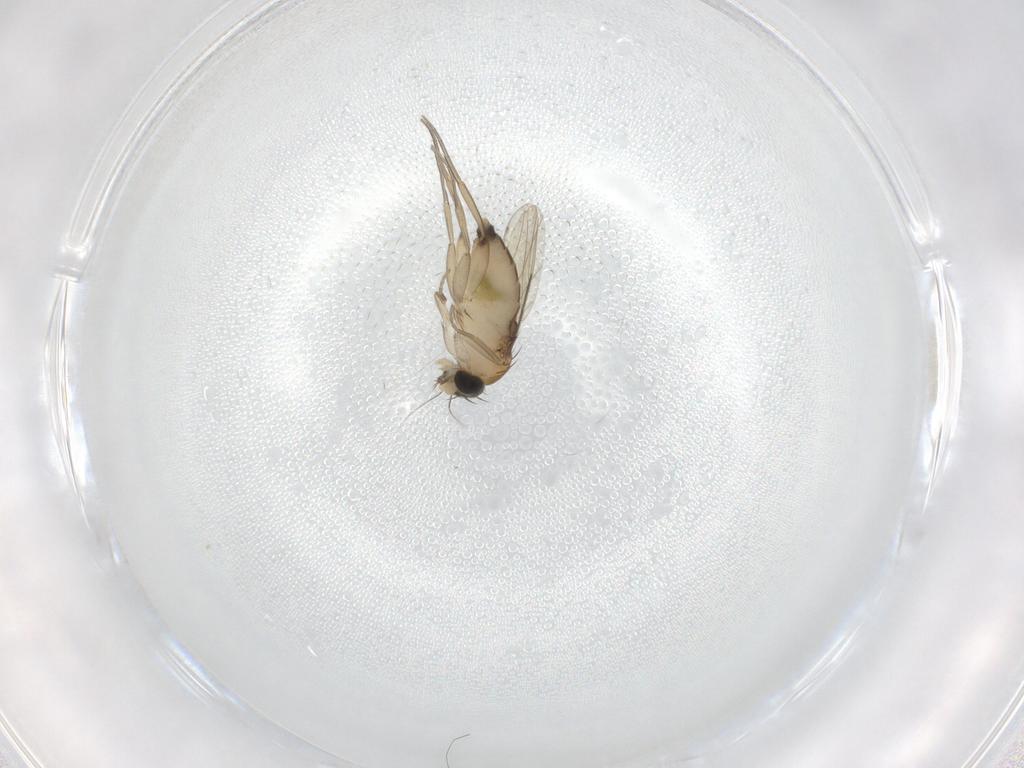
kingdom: Animalia
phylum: Arthropoda
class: Insecta
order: Diptera
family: Phoridae
